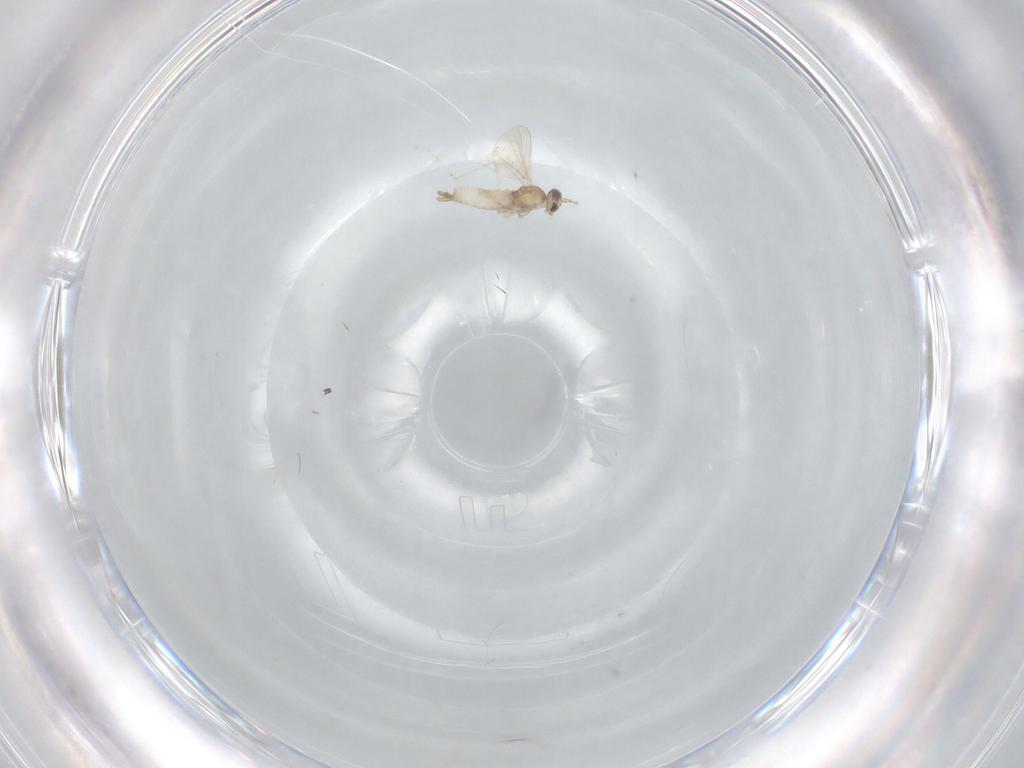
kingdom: Animalia
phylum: Arthropoda
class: Insecta
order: Diptera
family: Cecidomyiidae
